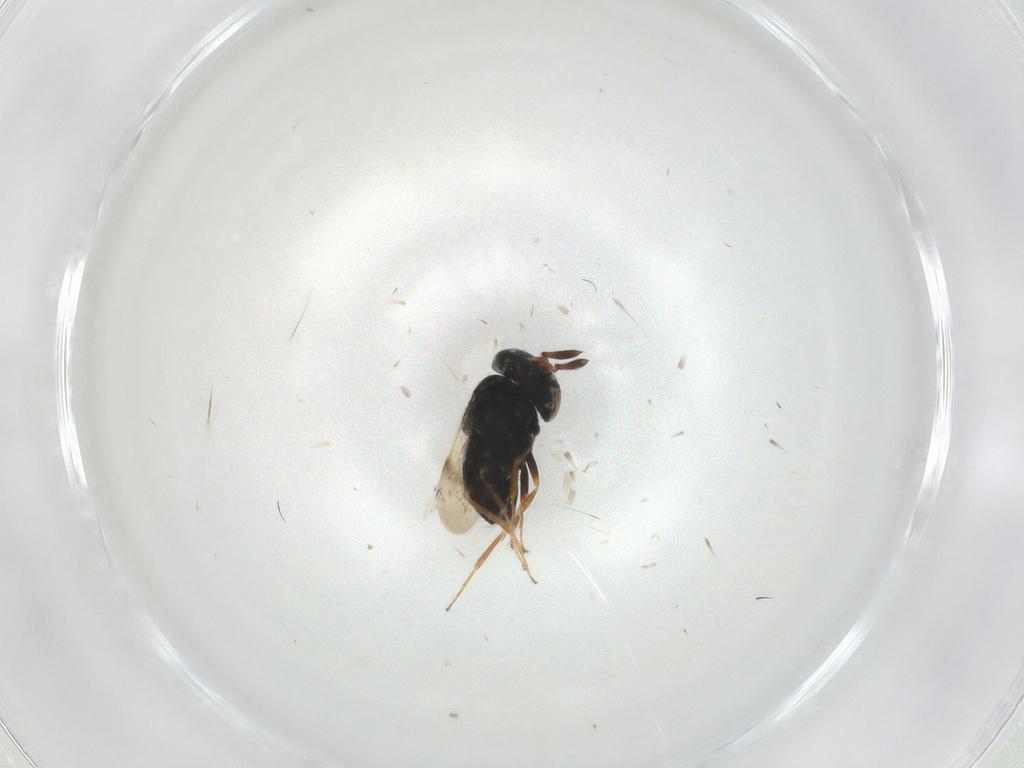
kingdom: Animalia
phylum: Arthropoda
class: Insecta
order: Hymenoptera
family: Scelionidae
